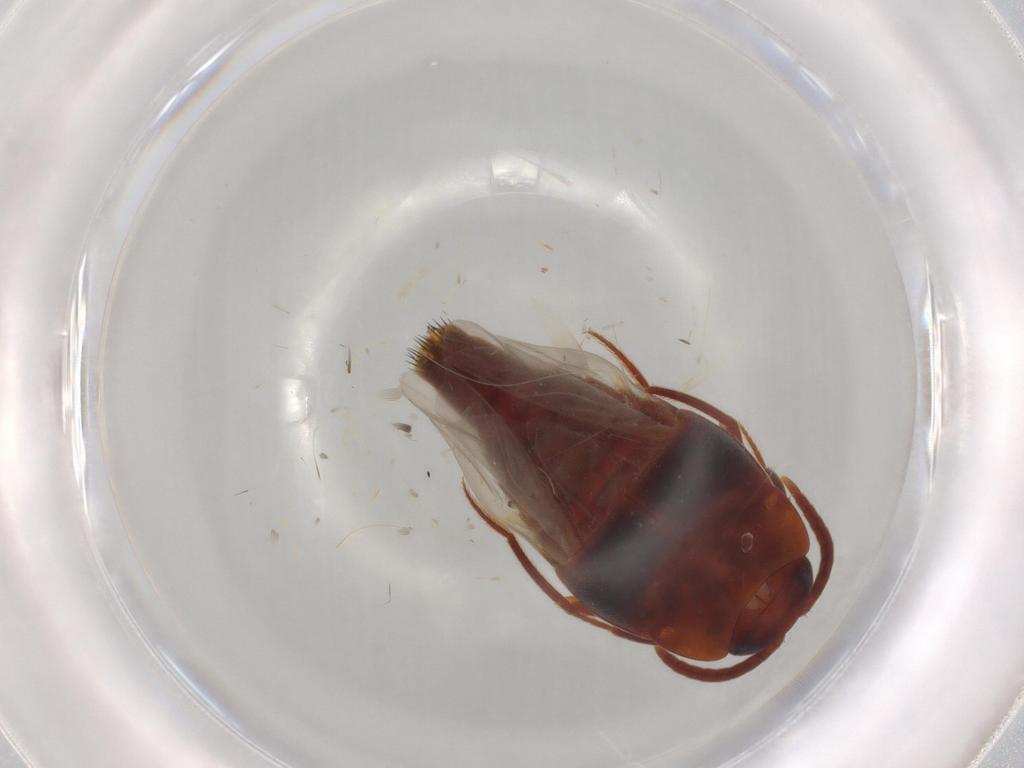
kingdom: Animalia
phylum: Arthropoda
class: Insecta
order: Coleoptera
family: Staphylinidae
